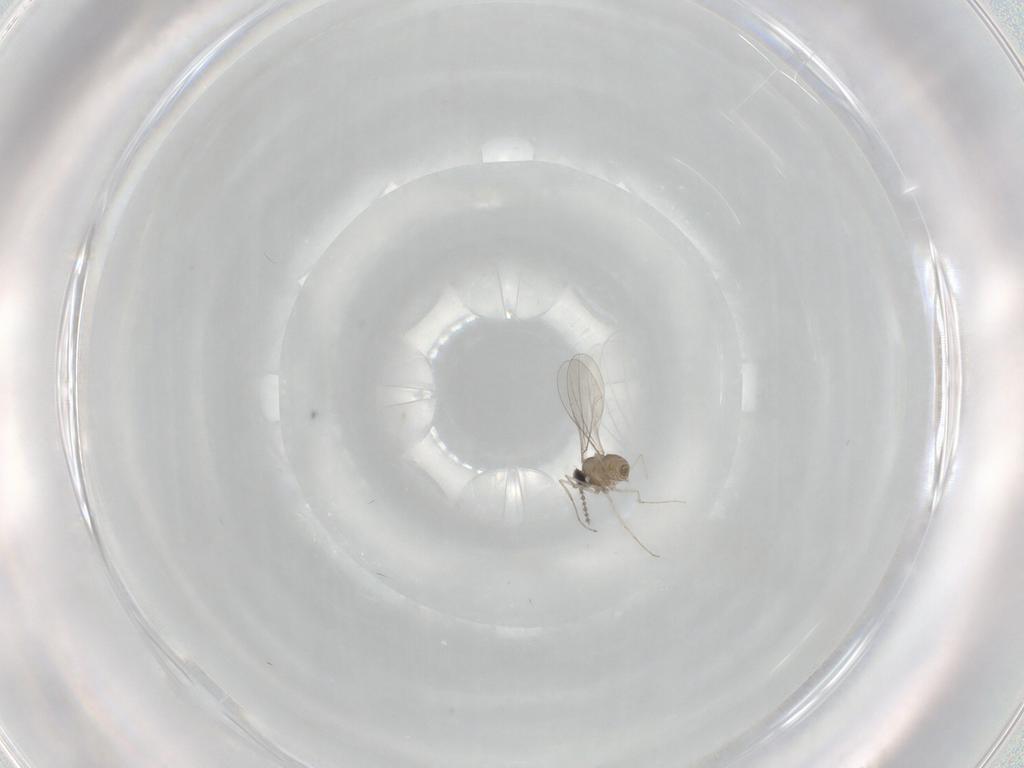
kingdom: Animalia
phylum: Arthropoda
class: Insecta
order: Diptera
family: Cecidomyiidae
